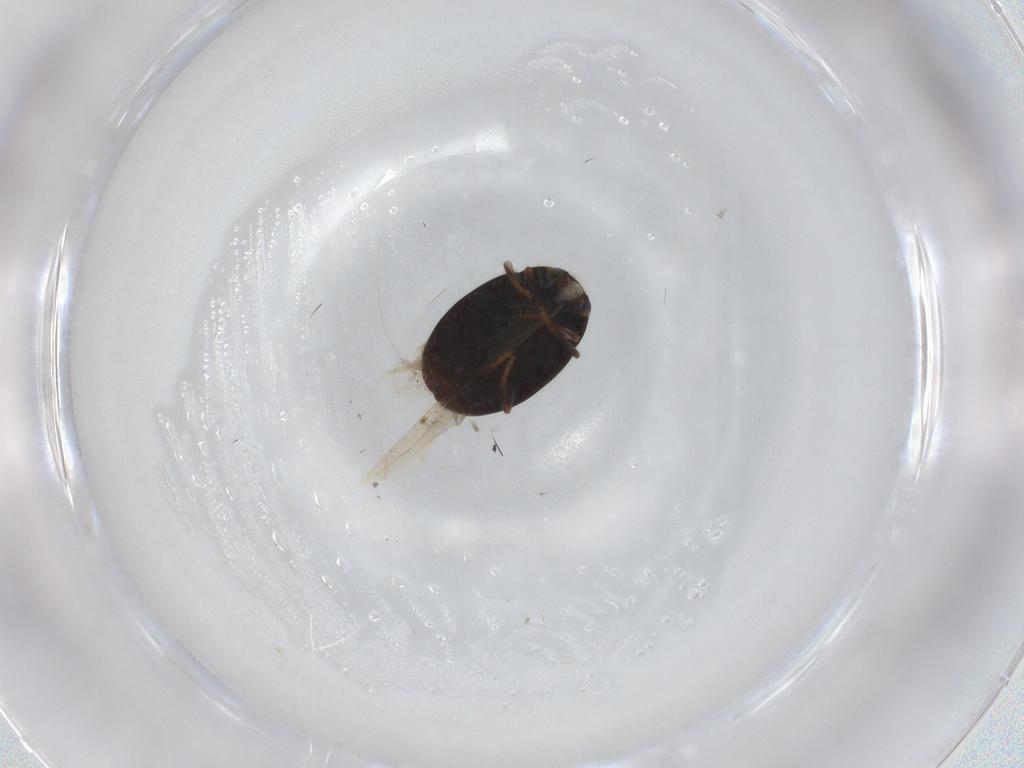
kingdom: Animalia
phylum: Arthropoda
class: Insecta
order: Coleoptera
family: Coccinellidae
